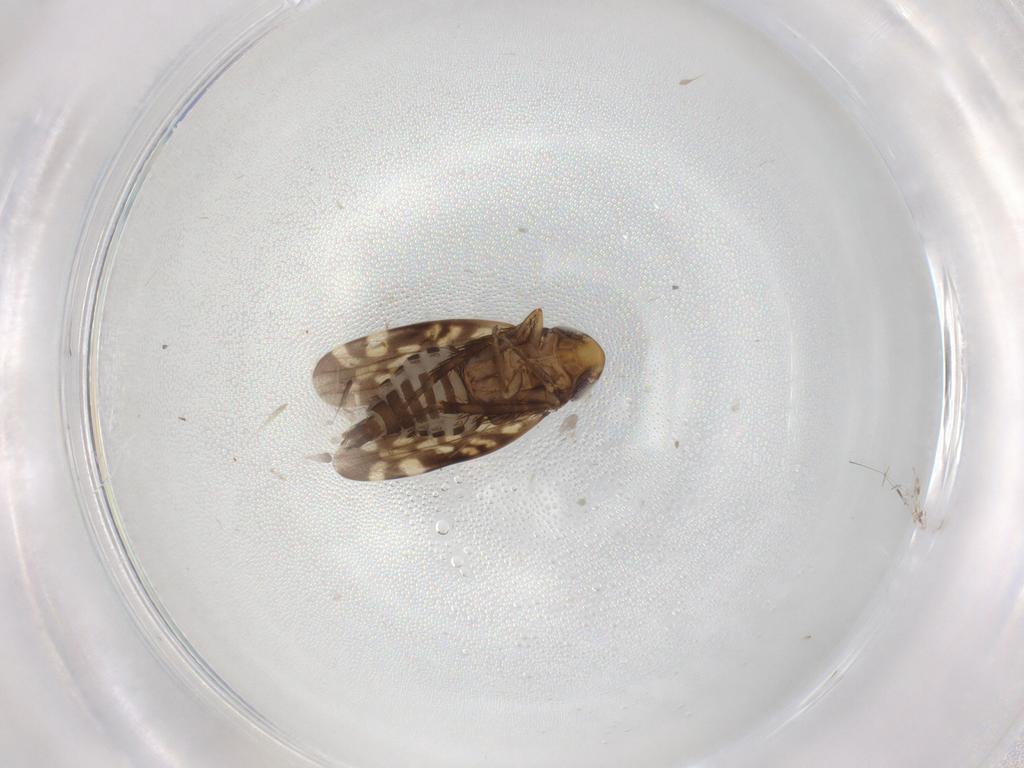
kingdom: Animalia
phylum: Arthropoda
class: Insecta
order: Hemiptera
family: Cicadellidae
